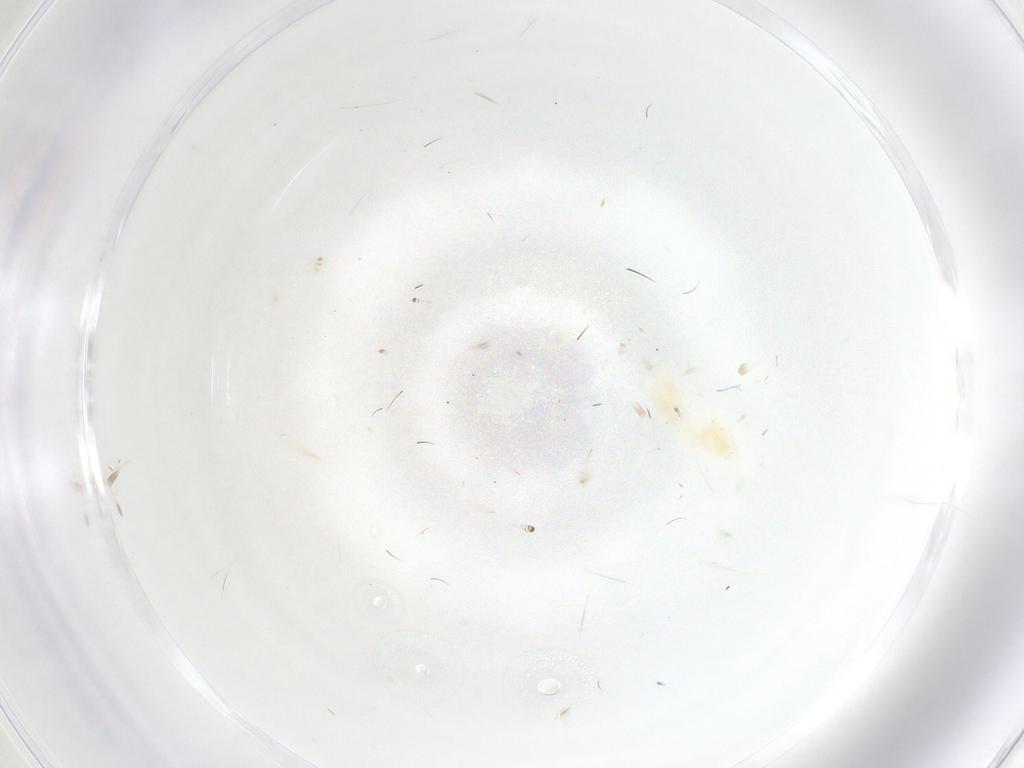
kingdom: Animalia
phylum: Arthropoda
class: Insecta
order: Lepidoptera
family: Gelechiidae
